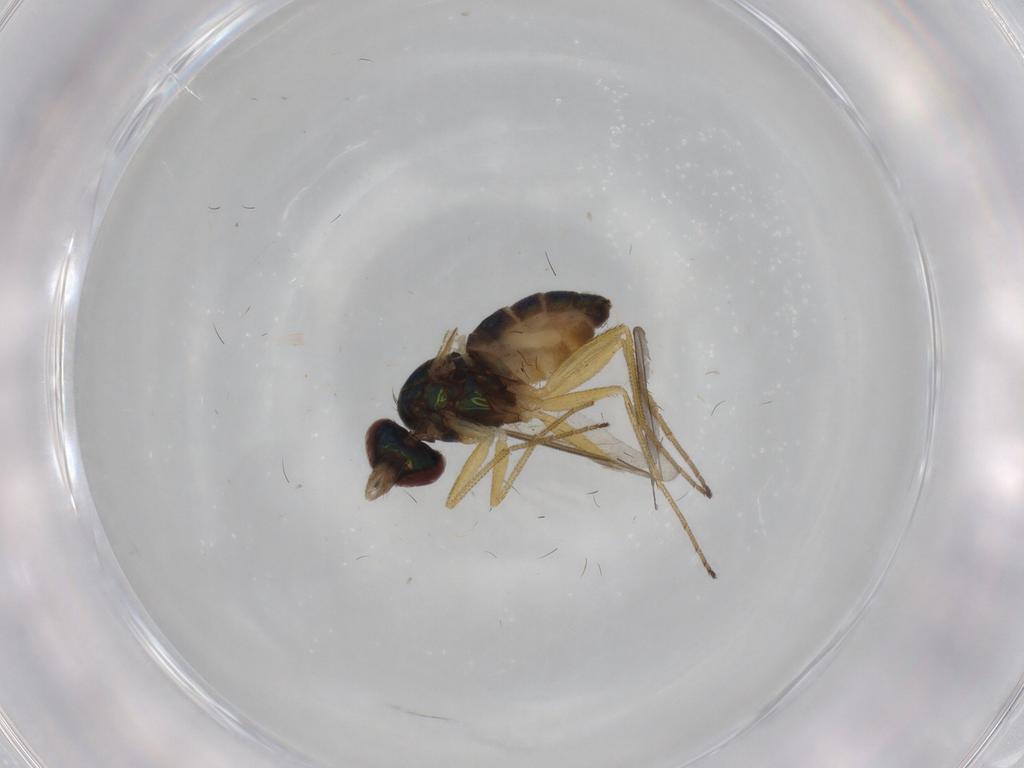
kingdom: Animalia
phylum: Arthropoda
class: Insecta
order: Diptera
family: Dolichopodidae
